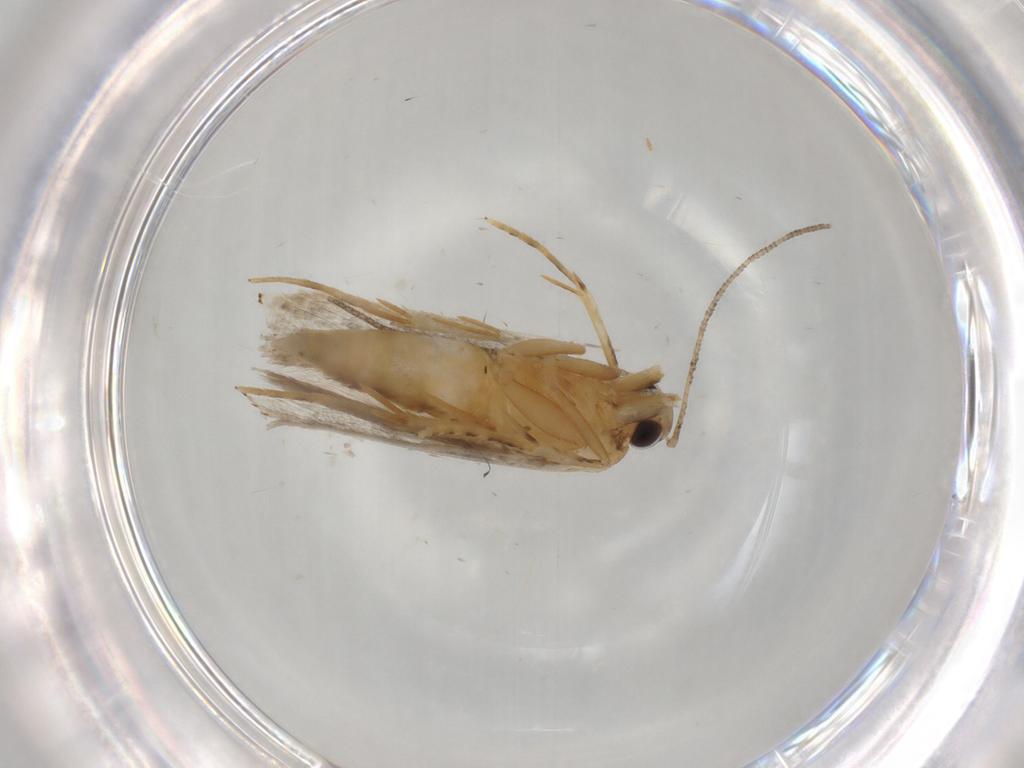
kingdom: Animalia
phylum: Arthropoda
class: Insecta
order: Lepidoptera
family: Autostichidae
